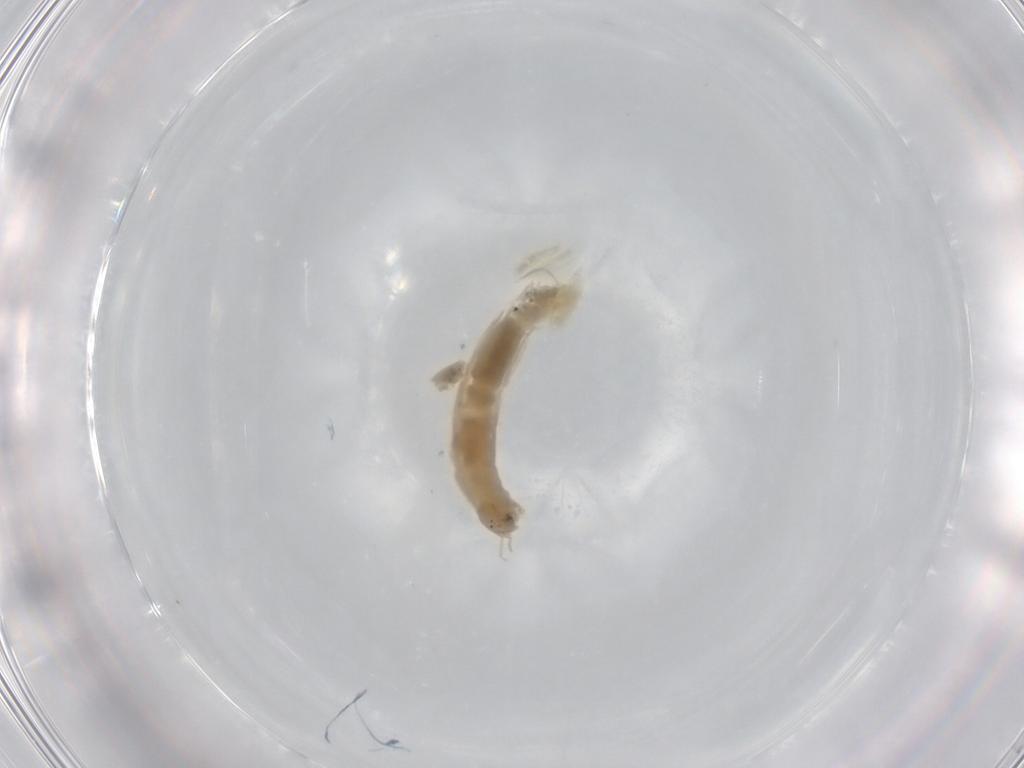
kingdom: Animalia
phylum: Arthropoda
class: Insecta
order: Diptera
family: Chironomidae
